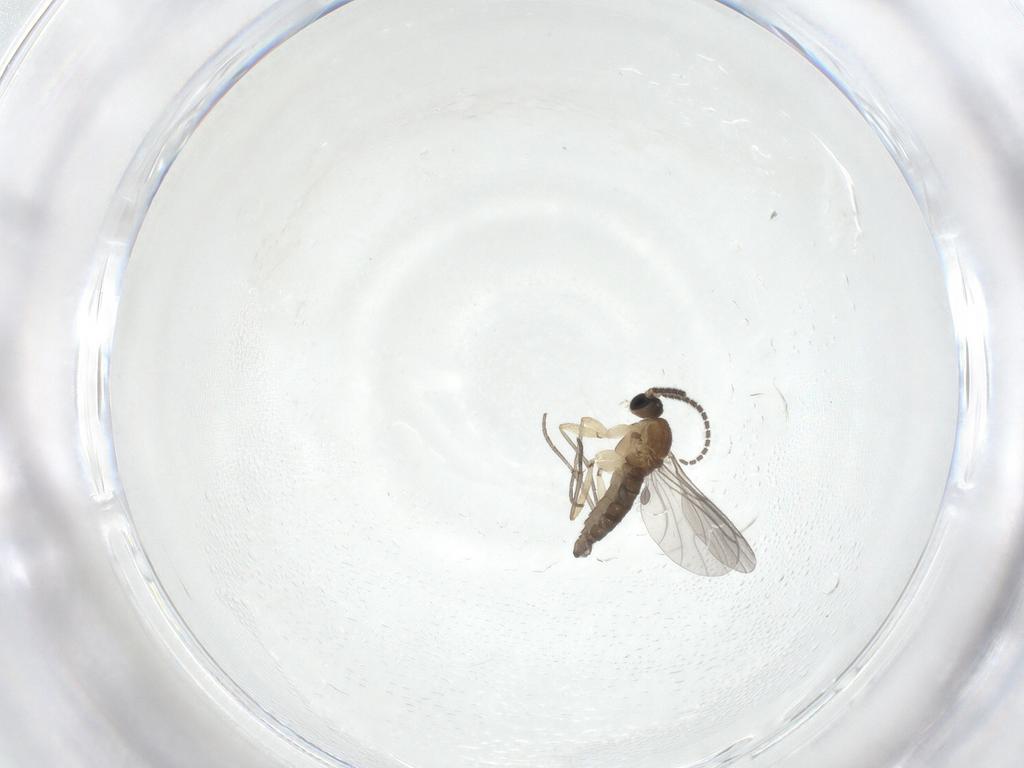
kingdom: Animalia
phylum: Arthropoda
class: Insecta
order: Diptera
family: Sciaridae
